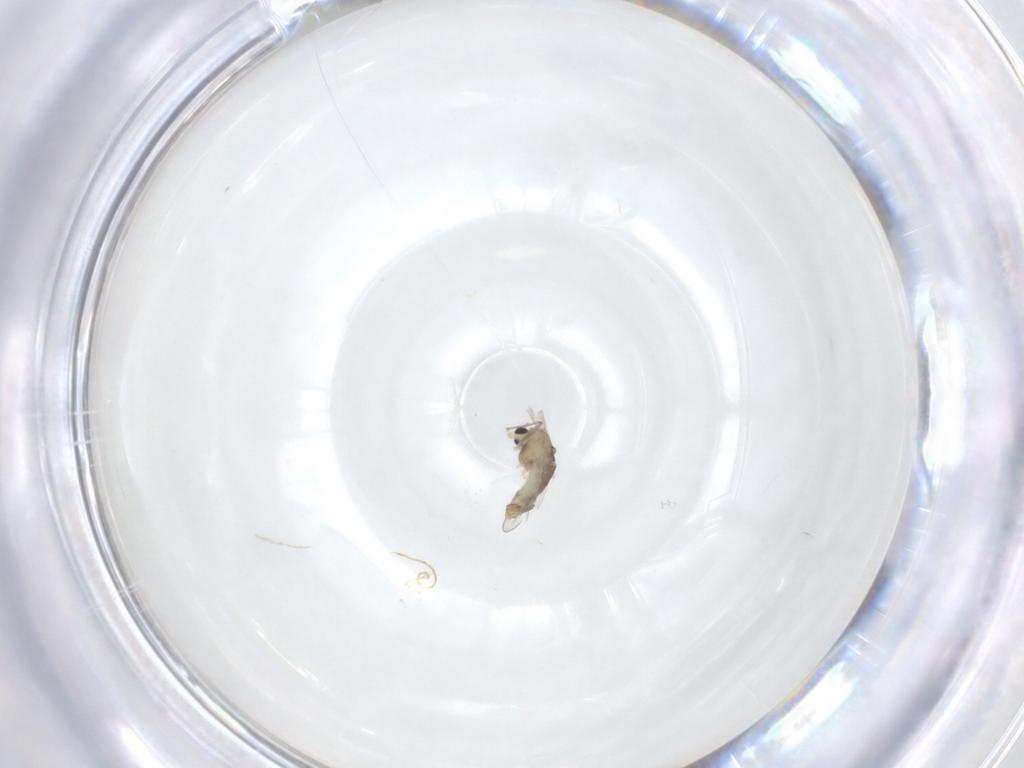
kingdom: Animalia
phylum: Arthropoda
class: Insecta
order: Diptera
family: Chironomidae
